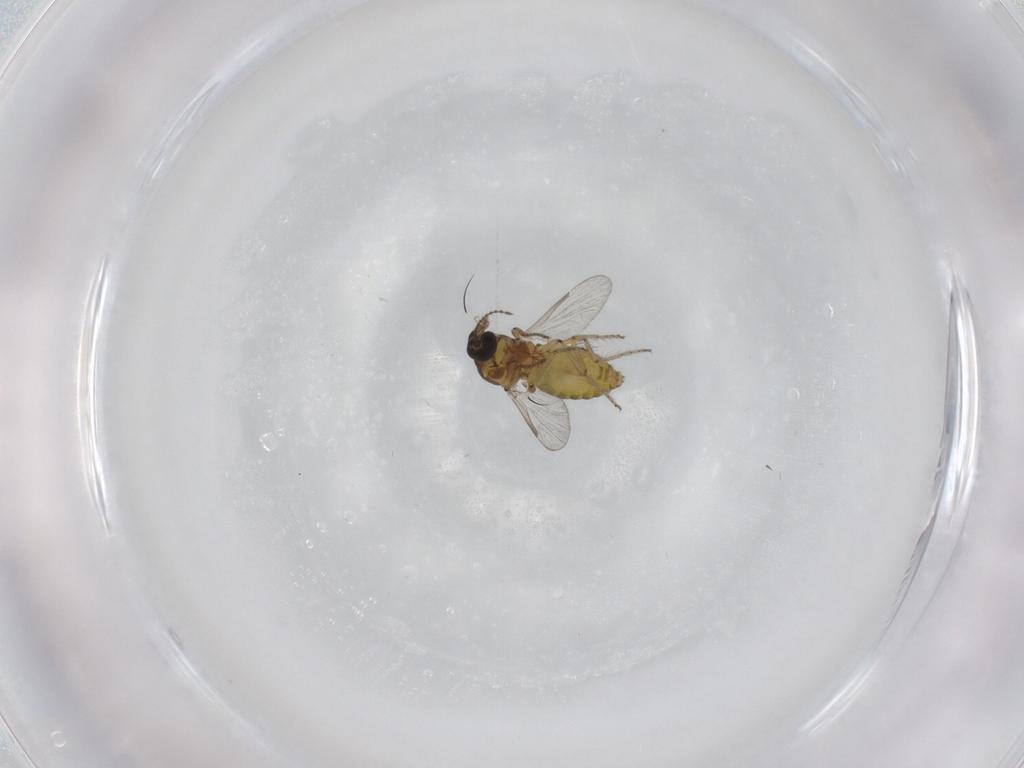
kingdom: Animalia
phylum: Arthropoda
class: Insecta
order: Diptera
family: Ceratopogonidae
